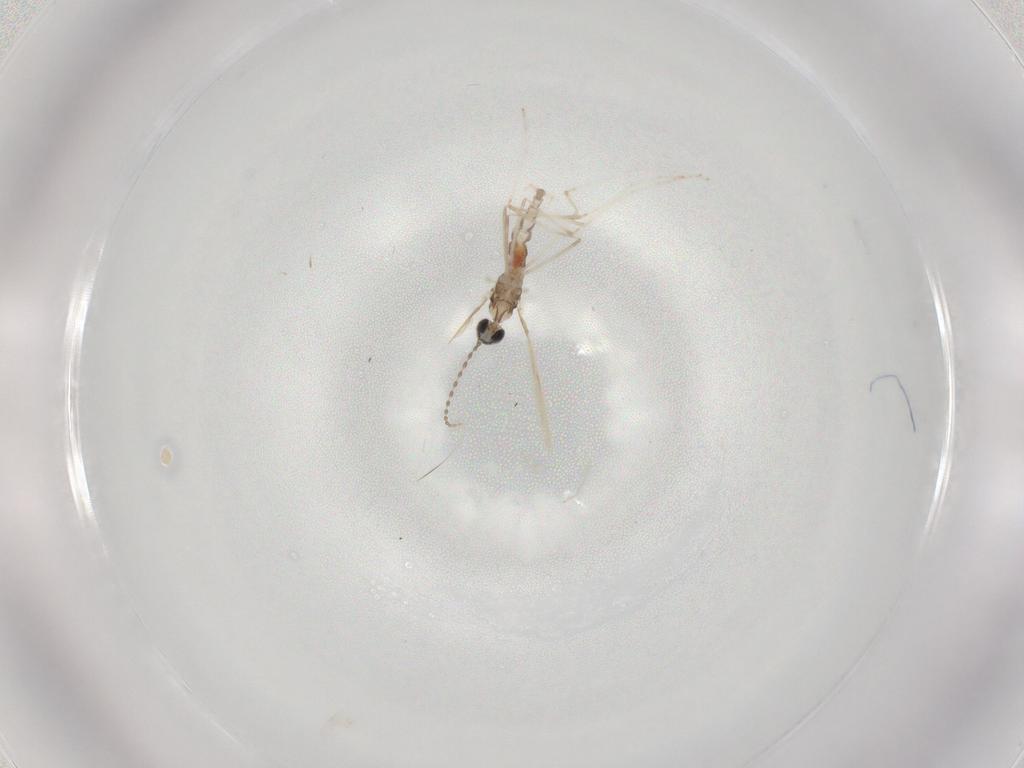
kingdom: Animalia
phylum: Arthropoda
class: Insecta
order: Diptera
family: Cecidomyiidae
